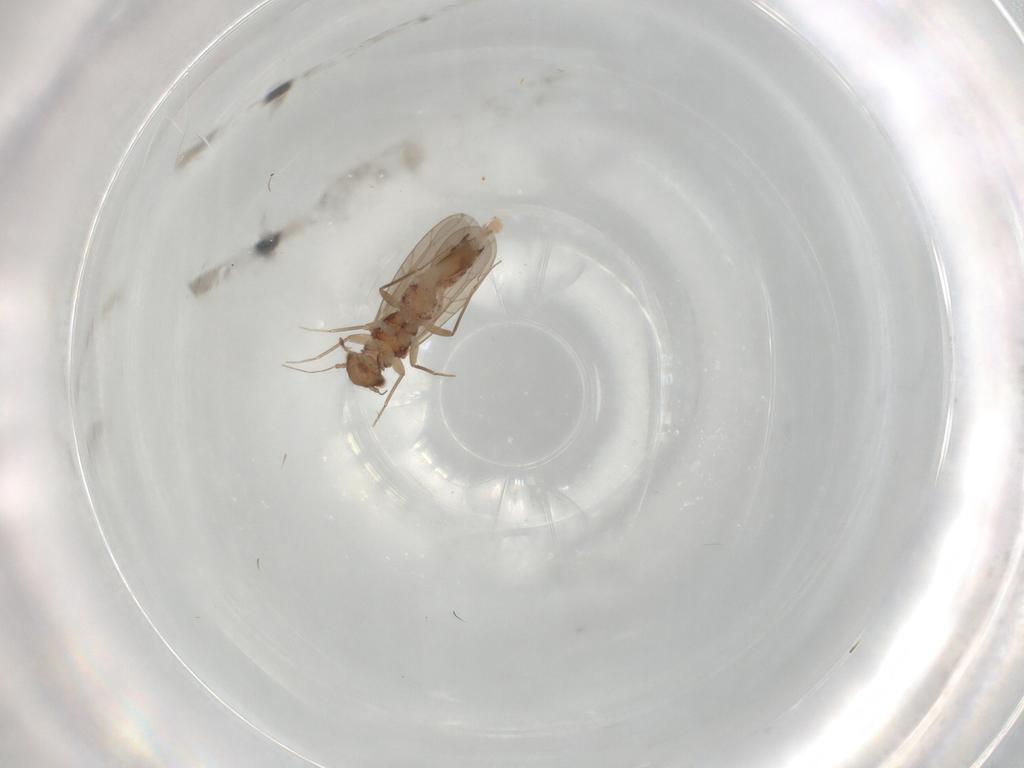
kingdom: Animalia
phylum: Arthropoda
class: Insecta
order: Psocodea
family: Lepidopsocidae
